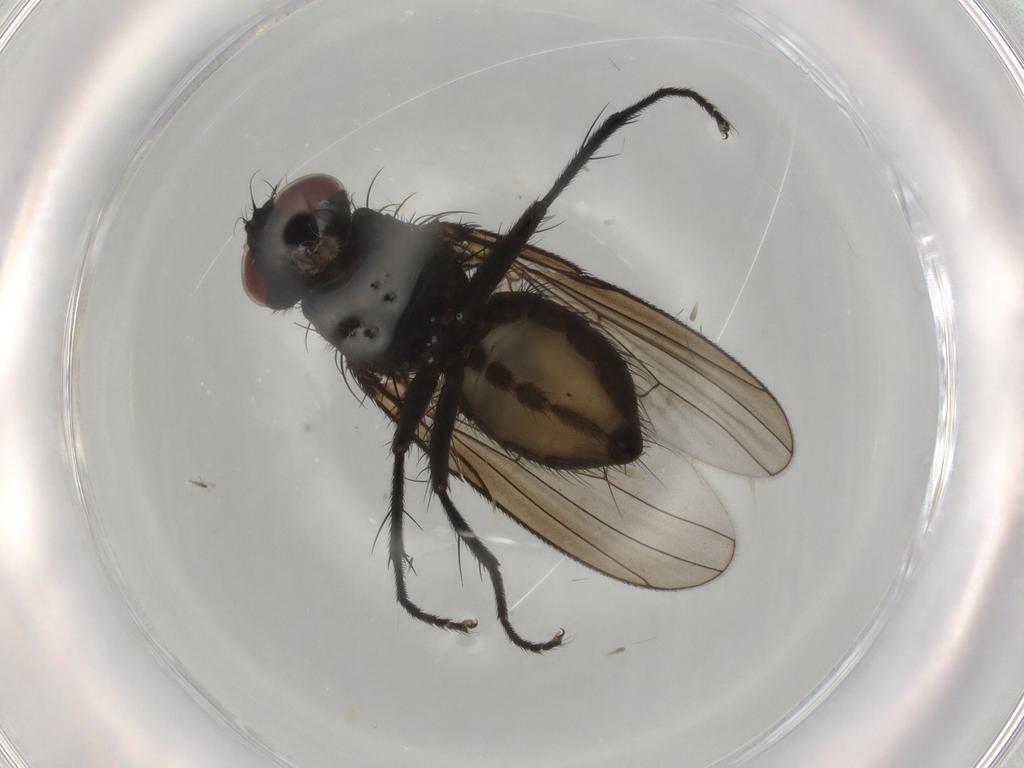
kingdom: Animalia
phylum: Arthropoda
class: Insecta
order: Diptera
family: Muscidae
